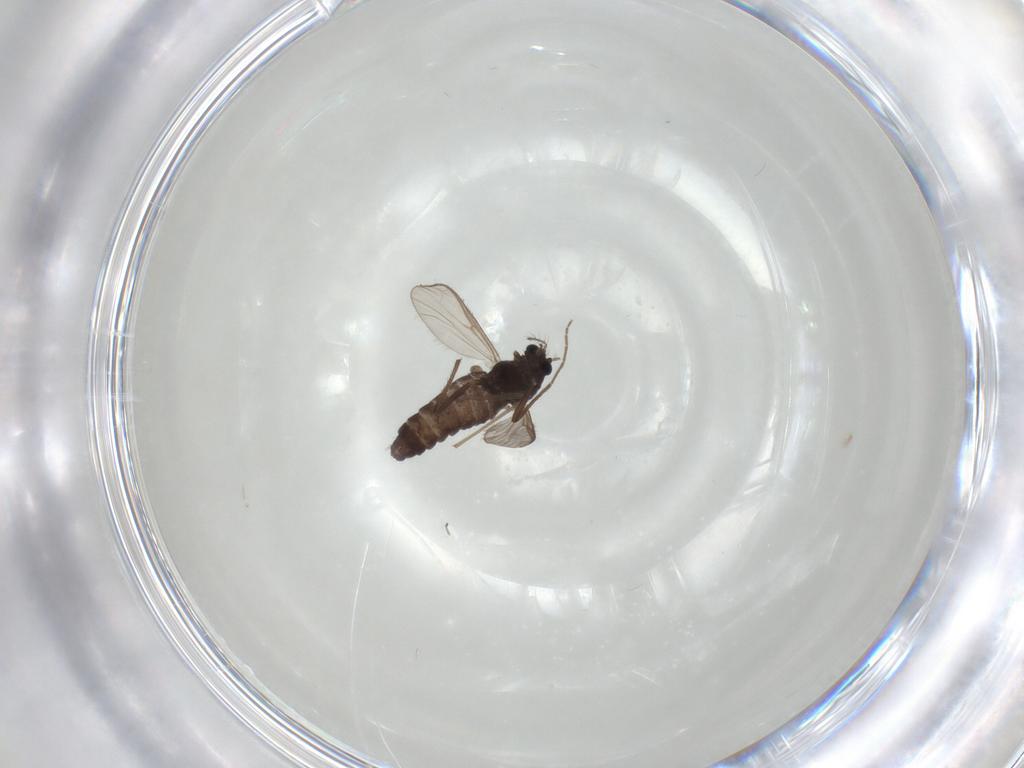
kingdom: Animalia
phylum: Arthropoda
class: Insecta
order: Diptera
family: Chironomidae
